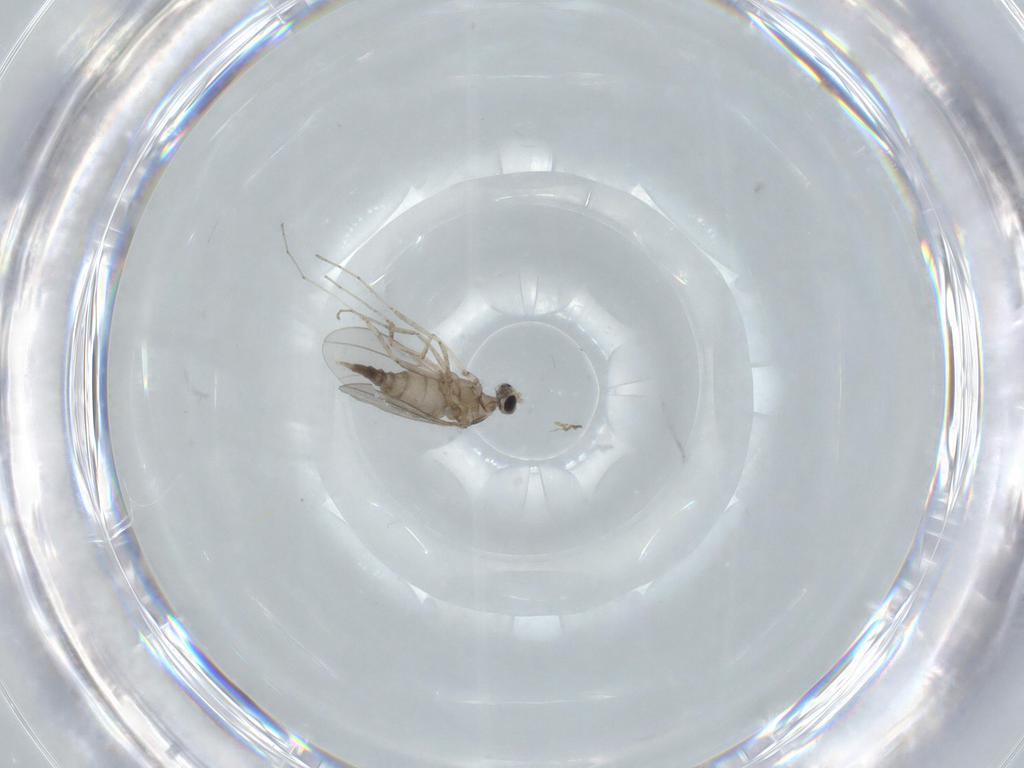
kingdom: Animalia
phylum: Arthropoda
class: Insecta
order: Diptera
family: Cecidomyiidae
